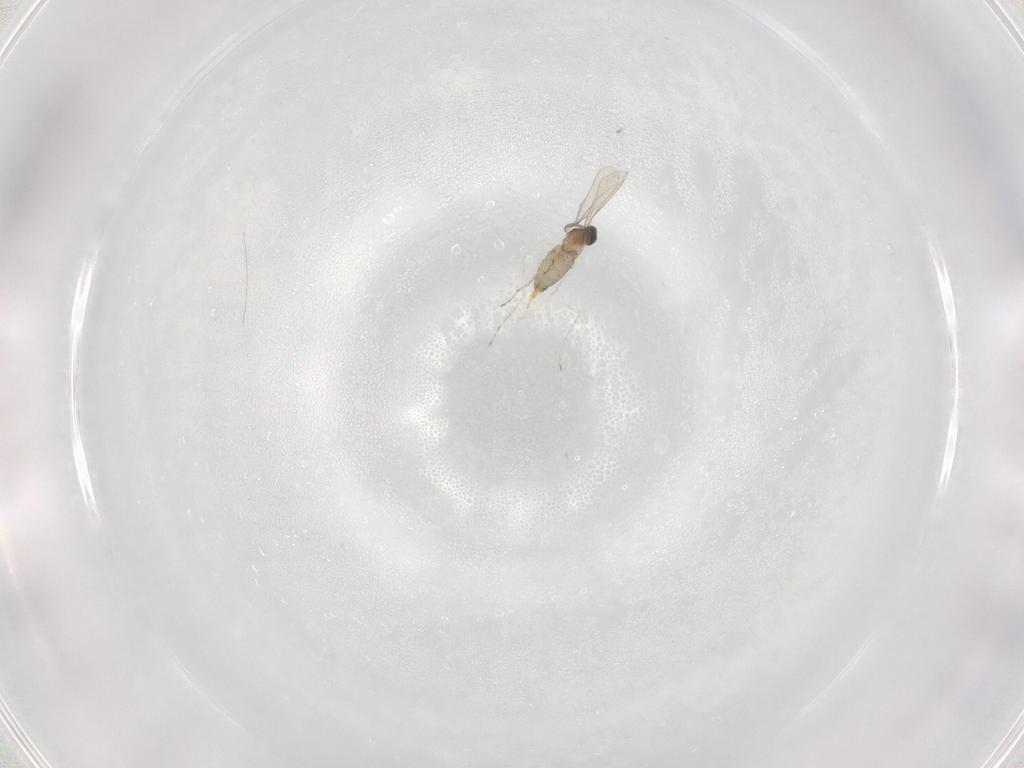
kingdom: Animalia
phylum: Arthropoda
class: Insecta
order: Diptera
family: Cecidomyiidae
